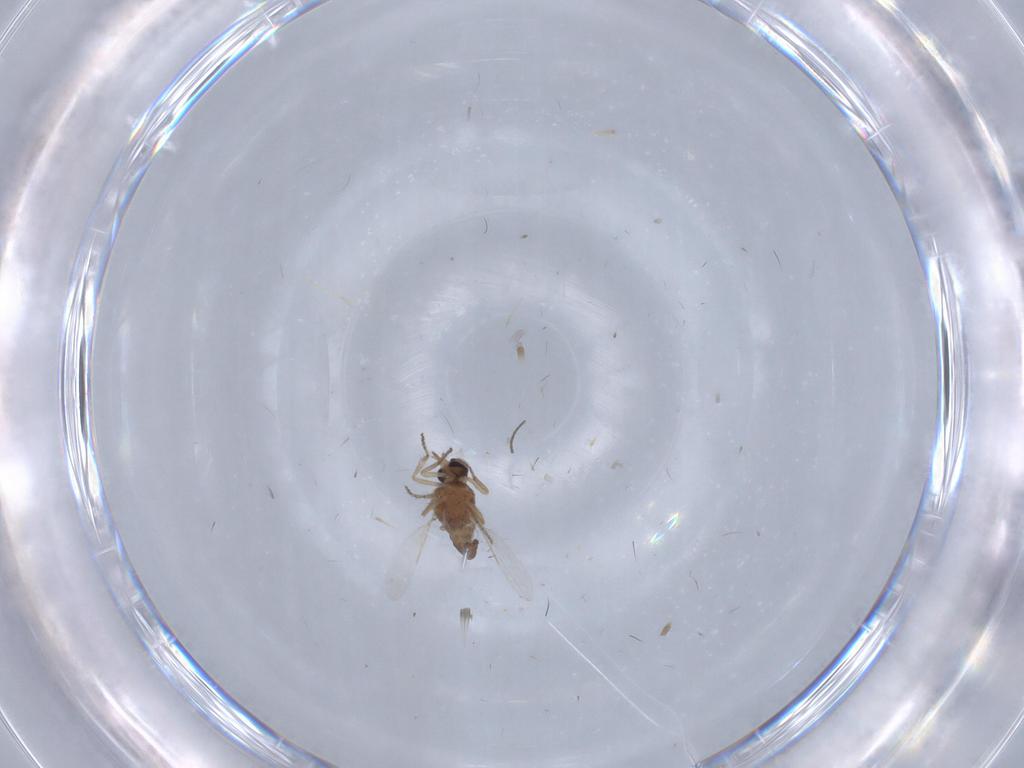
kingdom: Animalia
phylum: Arthropoda
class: Insecta
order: Diptera
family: Ceratopogonidae
